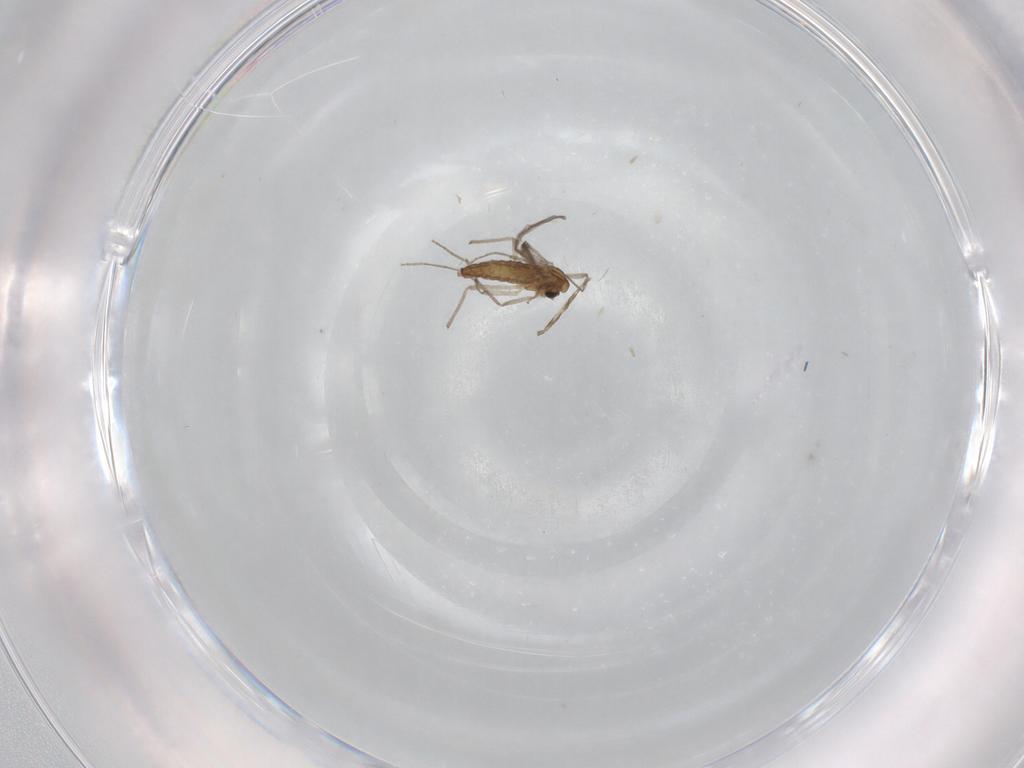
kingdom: Animalia
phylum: Arthropoda
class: Insecta
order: Diptera
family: Chironomidae
